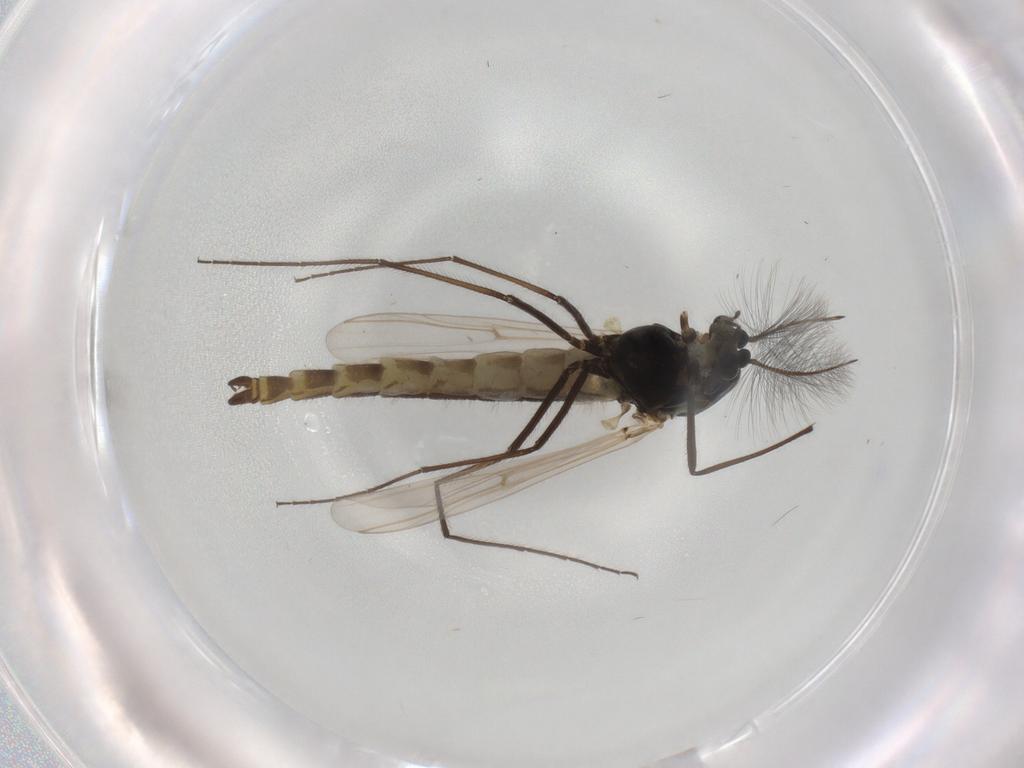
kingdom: Animalia
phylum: Arthropoda
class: Insecta
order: Diptera
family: Chironomidae
